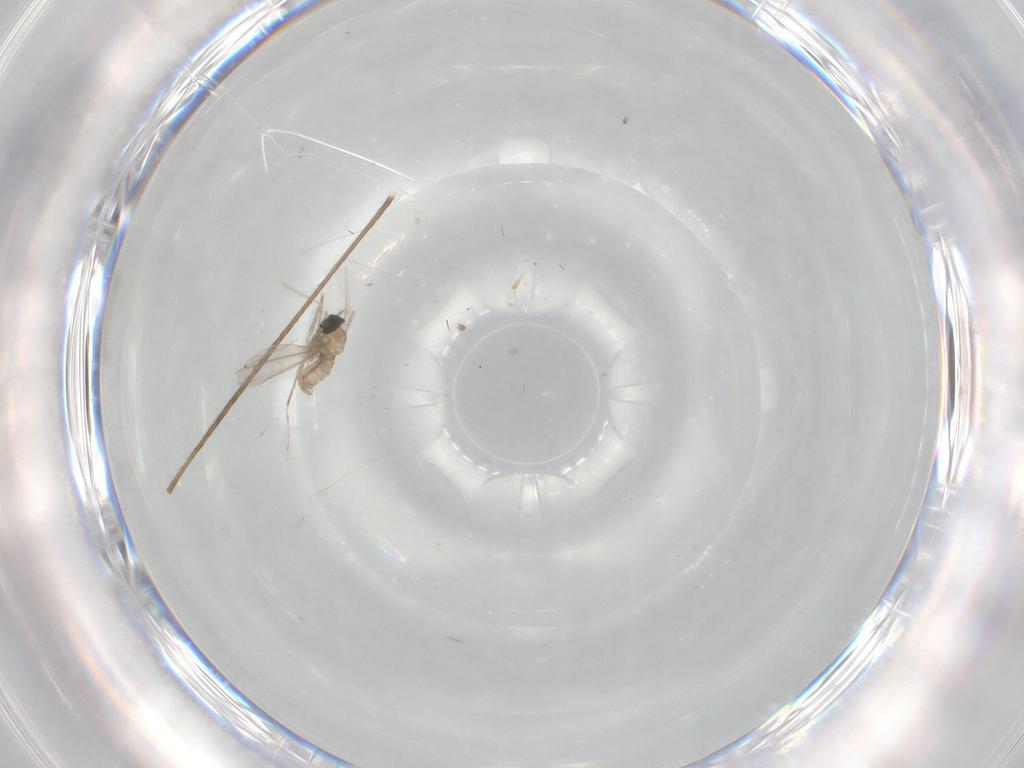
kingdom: Animalia
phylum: Arthropoda
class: Insecta
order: Diptera
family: Cecidomyiidae
